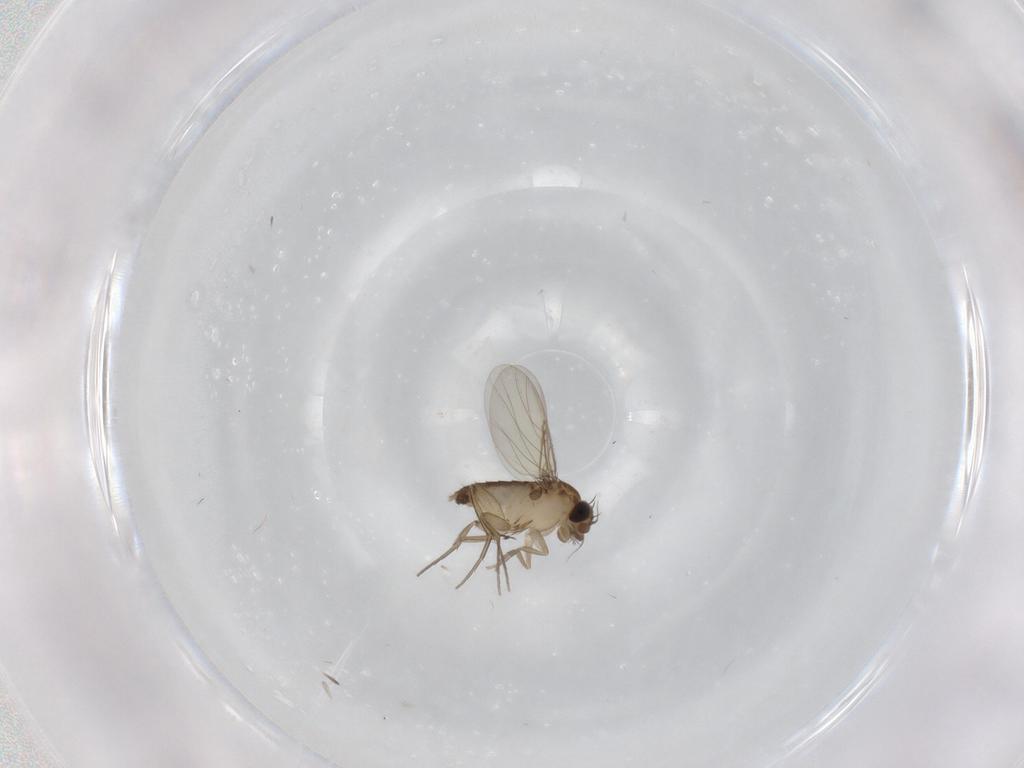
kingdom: Animalia
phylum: Arthropoda
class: Insecta
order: Diptera
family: Phoridae
